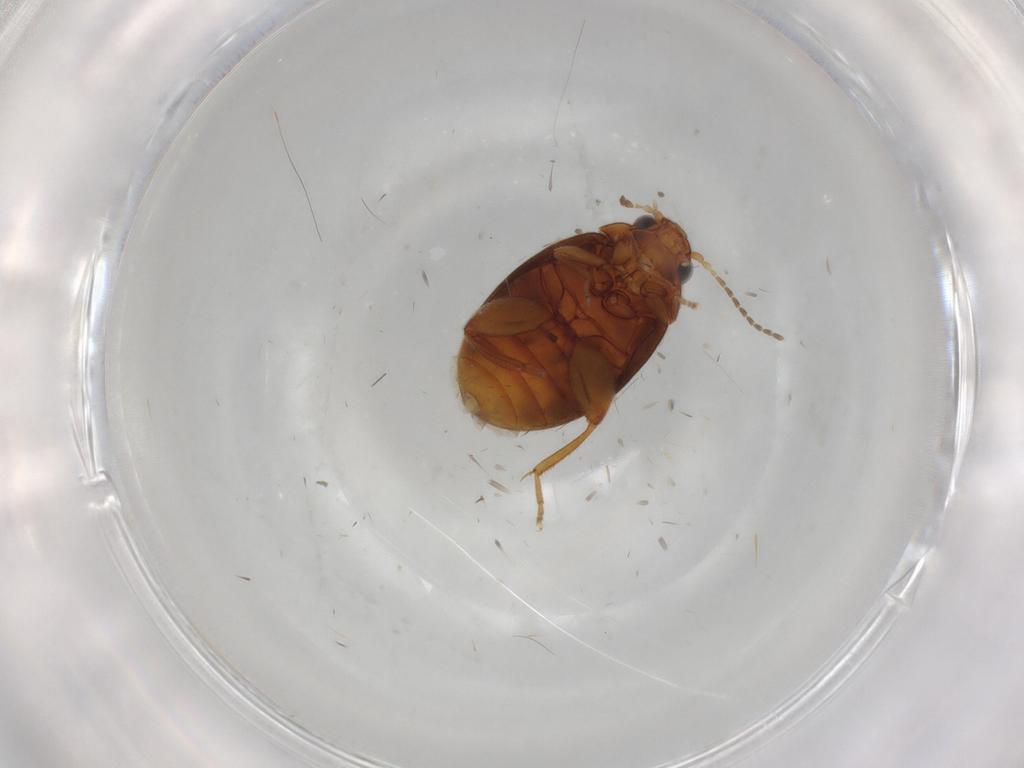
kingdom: Animalia
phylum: Arthropoda
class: Insecta
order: Coleoptera
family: Scirtidae
